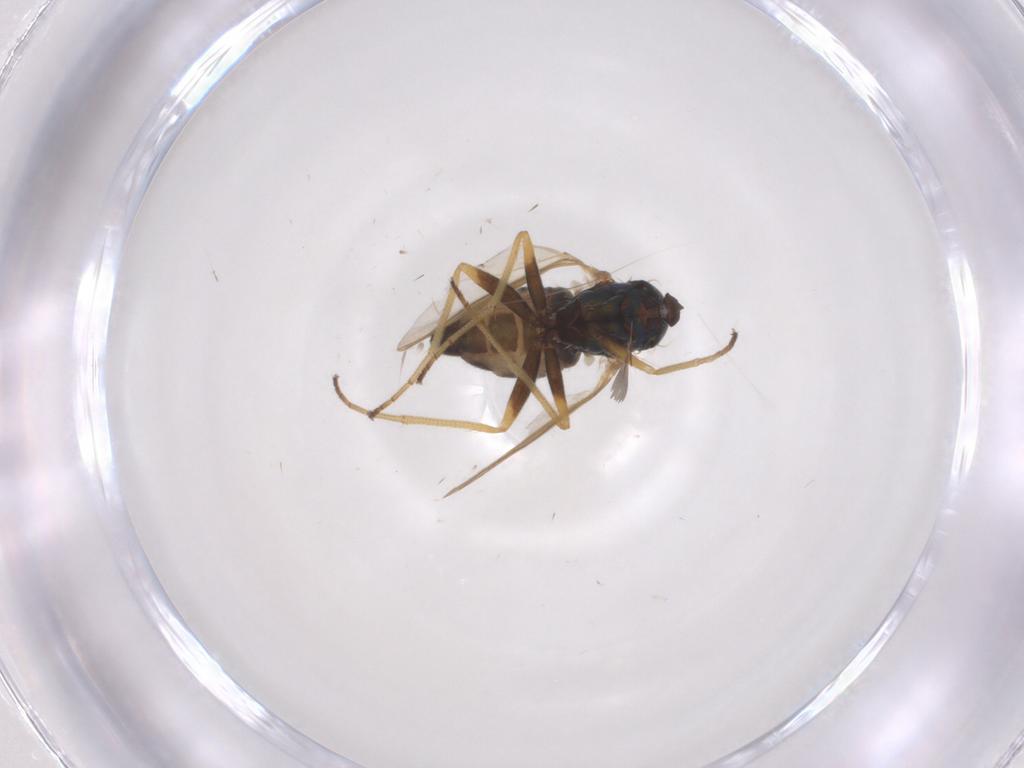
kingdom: Animalia
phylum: Arthropoda
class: Insecta
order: Diptera
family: Dolichopodidae
